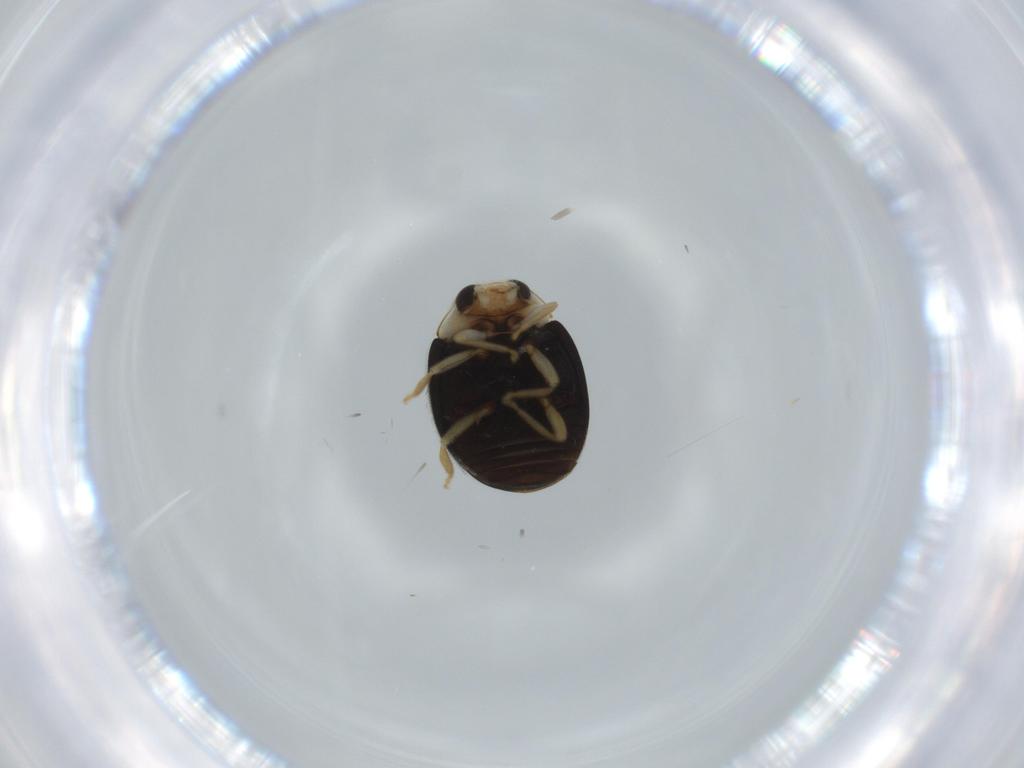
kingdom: Animalia
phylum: Arthropoda
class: Insecta
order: Coleoptera
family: Coccinellidae
